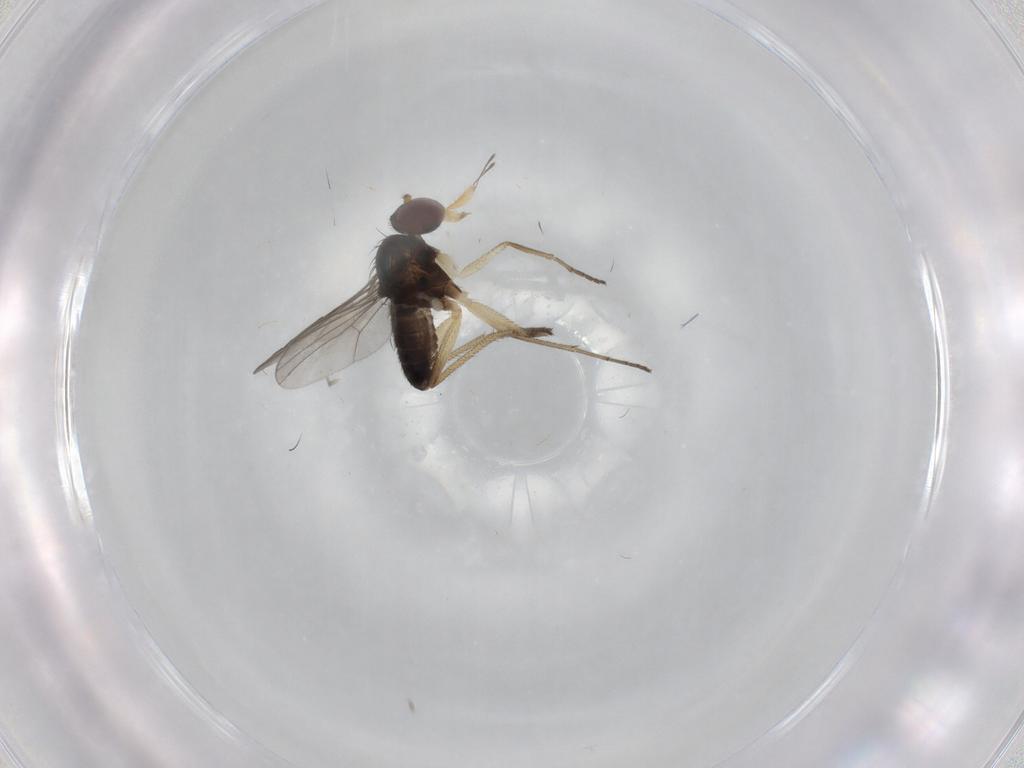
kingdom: Animalia
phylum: Arthropoda
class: Insecta
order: Diptera
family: Dolichopodidae
